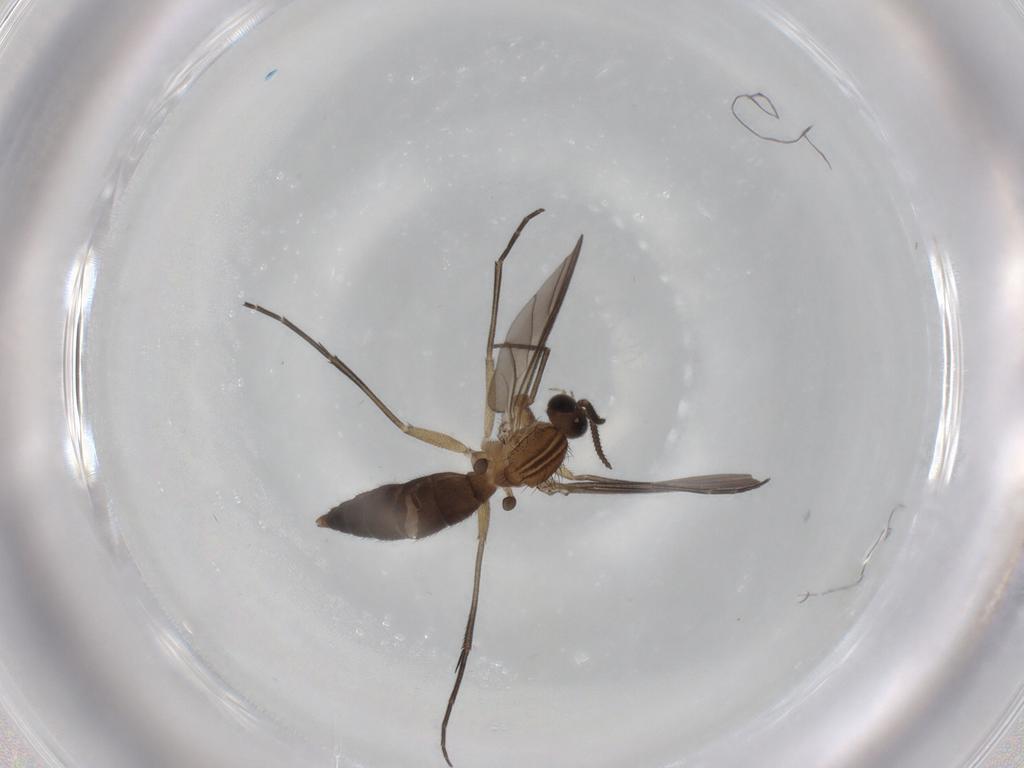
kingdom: Animalia
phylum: Arthropoda
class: Insecta
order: Diptera
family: Keroplatidae
